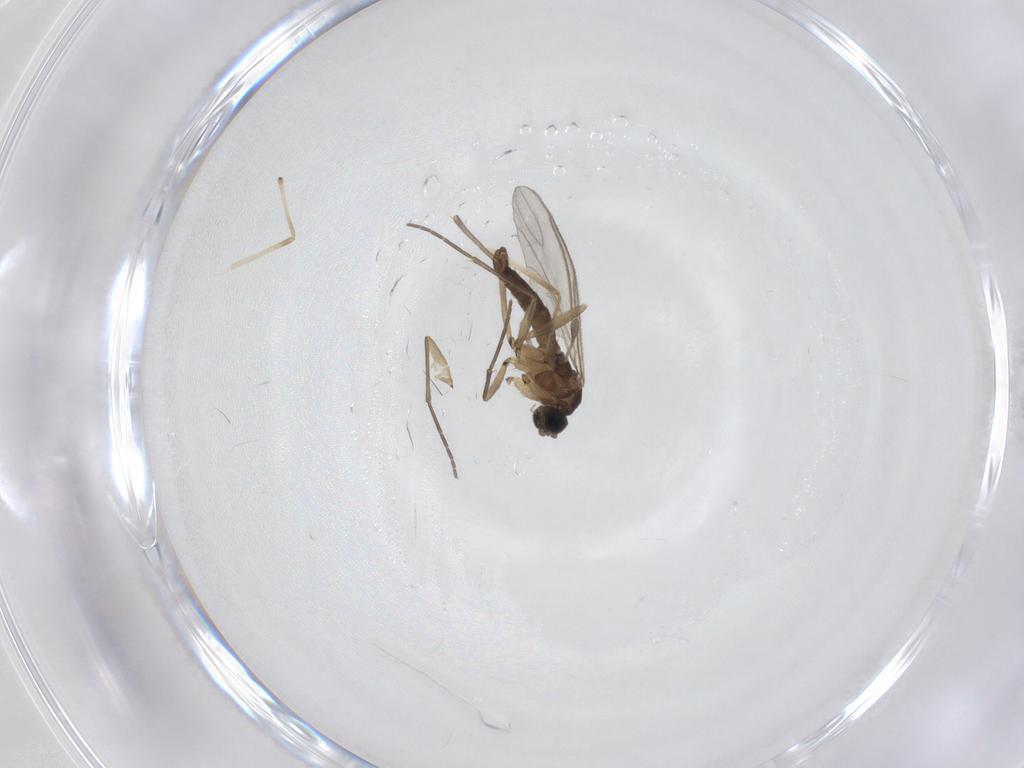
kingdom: Animalia
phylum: Arthropoda
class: Insecta
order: Diptera
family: Sciaridae
